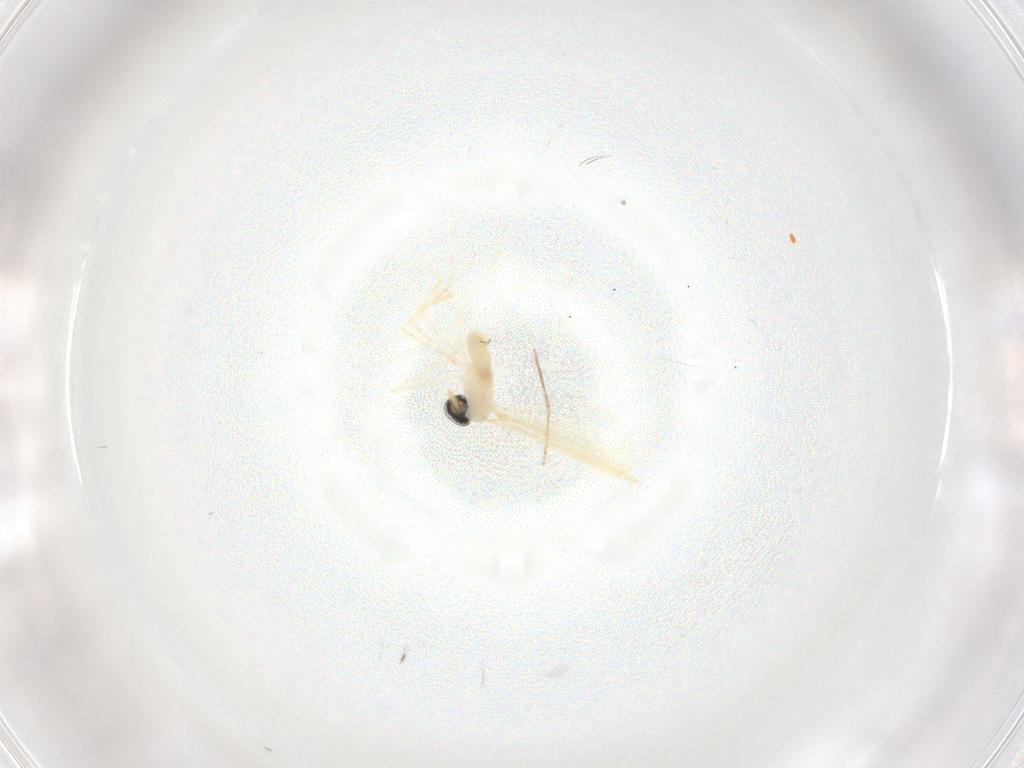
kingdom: Animalia
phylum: Arthropoda
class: Insecta
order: Diptera
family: Cecidomyiidae
